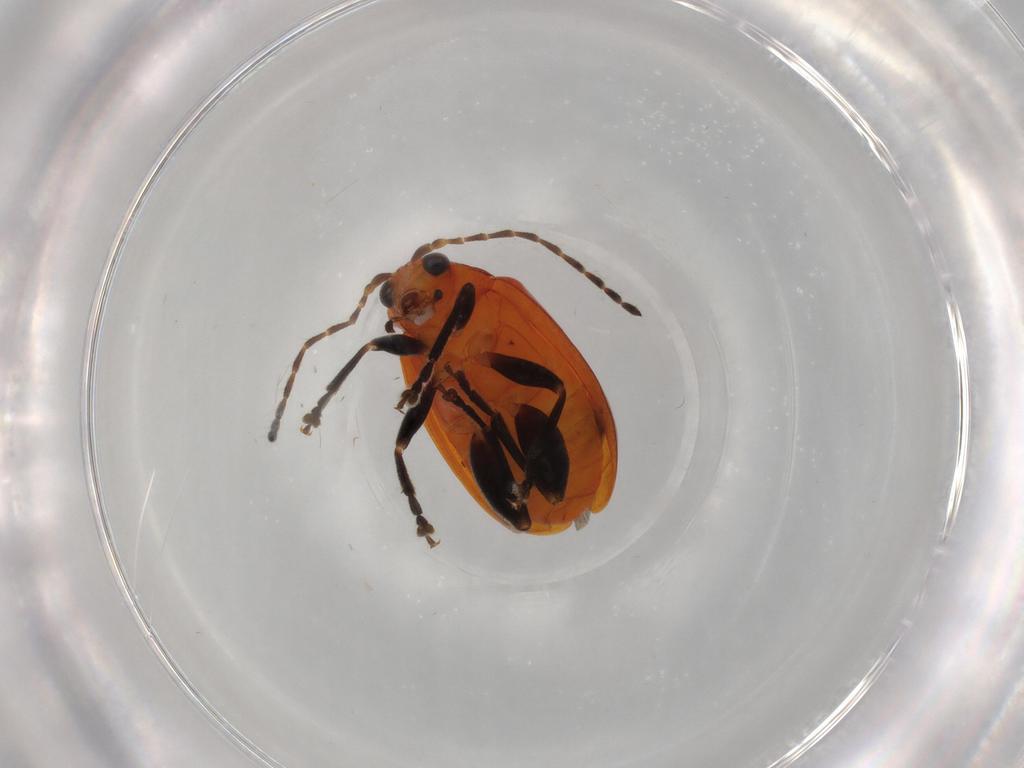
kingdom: Animalia
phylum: Arthropoda
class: Insecta
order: Coleoptera
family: Chrysomelidae
